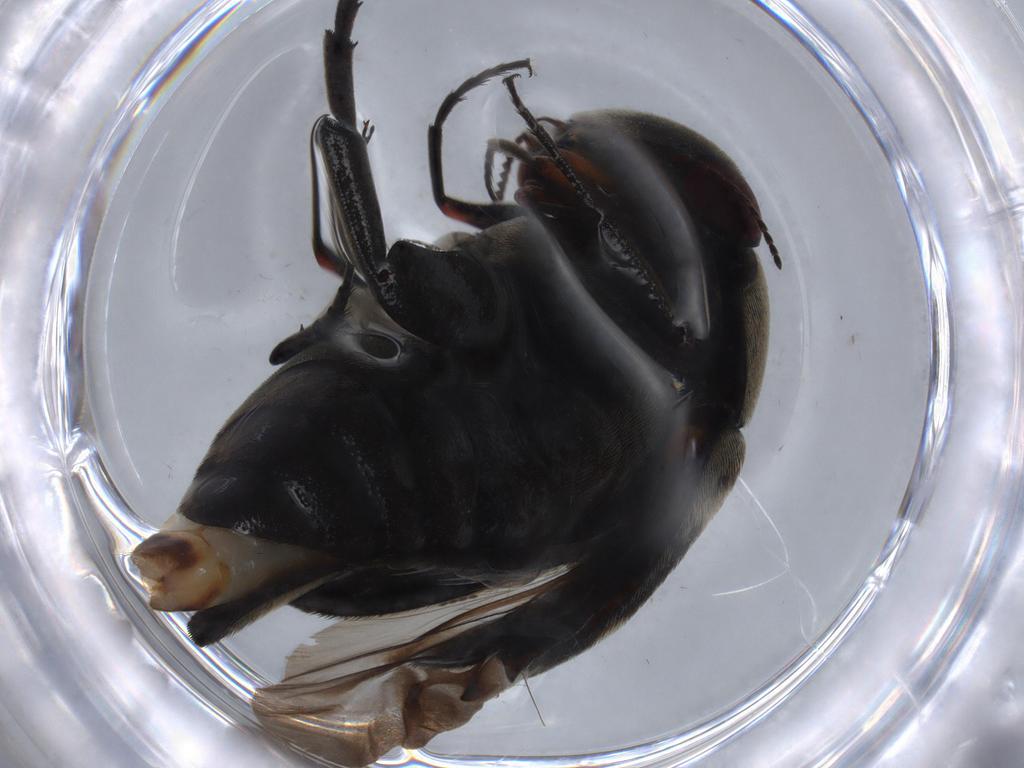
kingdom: Animalia
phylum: Arthropoda
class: Insecta
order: Coleoptera
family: Mordellidae
